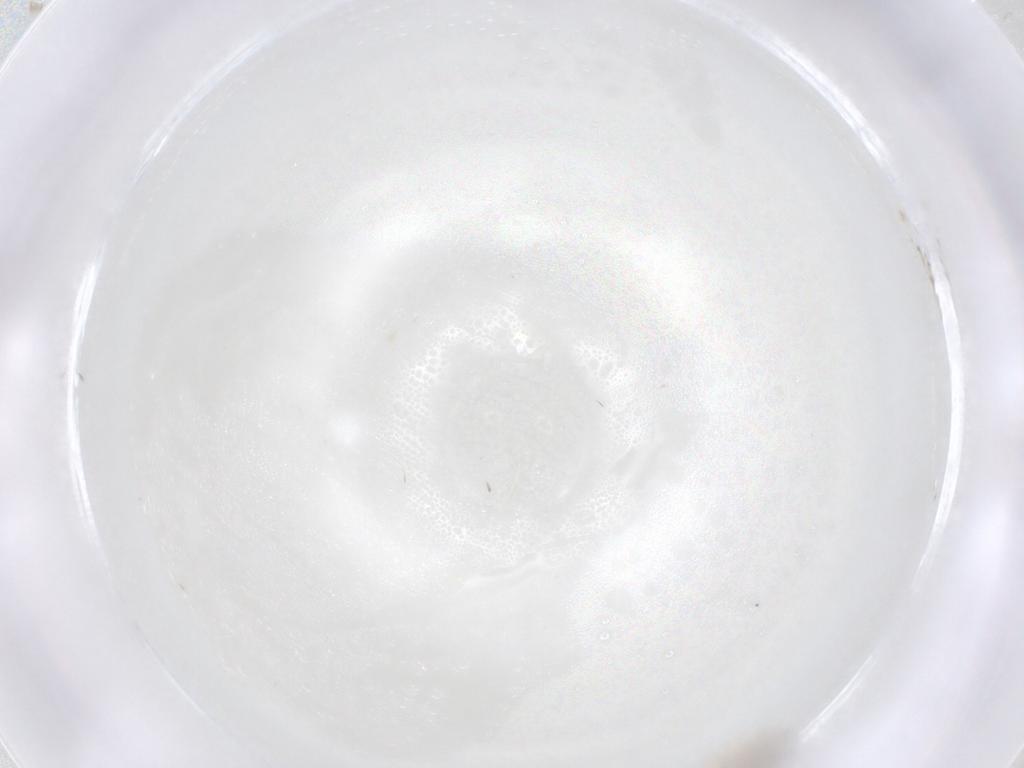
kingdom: Animalia
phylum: Arthropoda
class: Insecta
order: Diptera
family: Cecidomyiidae
